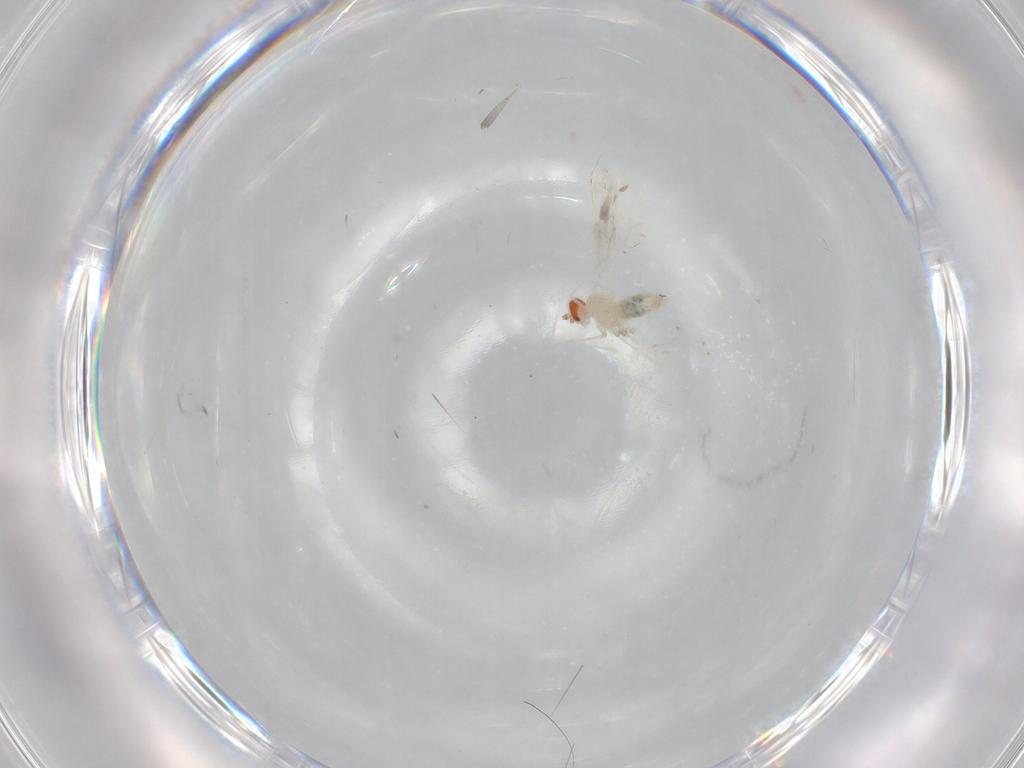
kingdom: Animalia
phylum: Arthropoda
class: Insecta
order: Diptera
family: Cecidomyiidae
